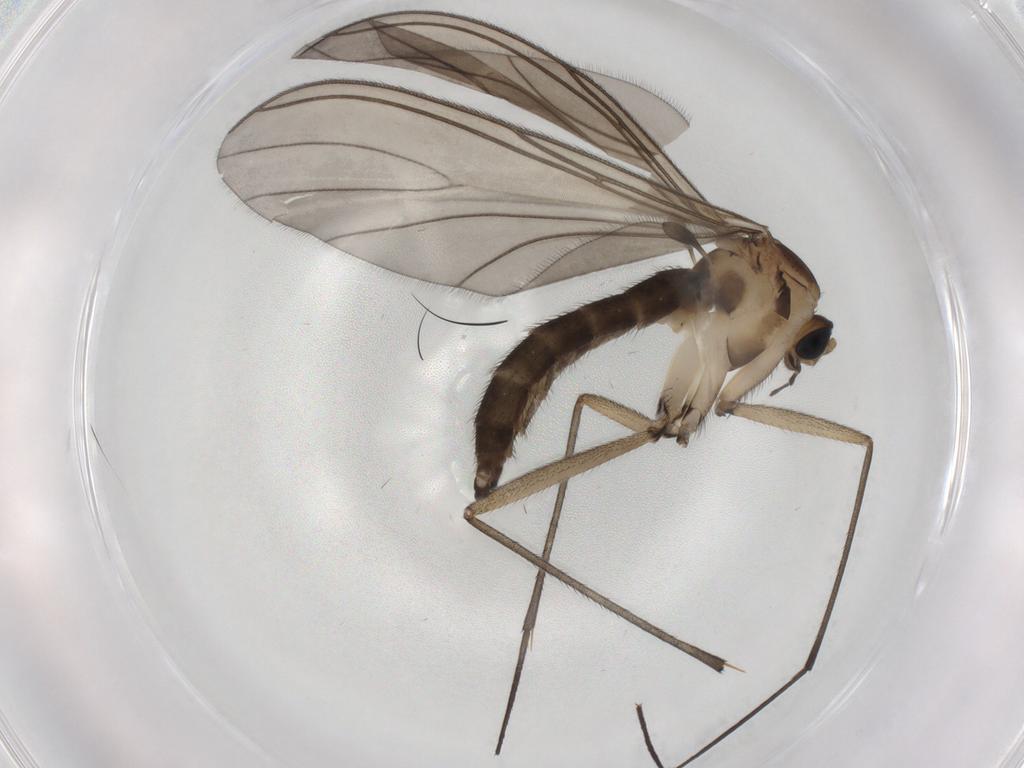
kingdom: Animalia
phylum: Arthropoda
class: Insecta
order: Diptera
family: Sciaridae
